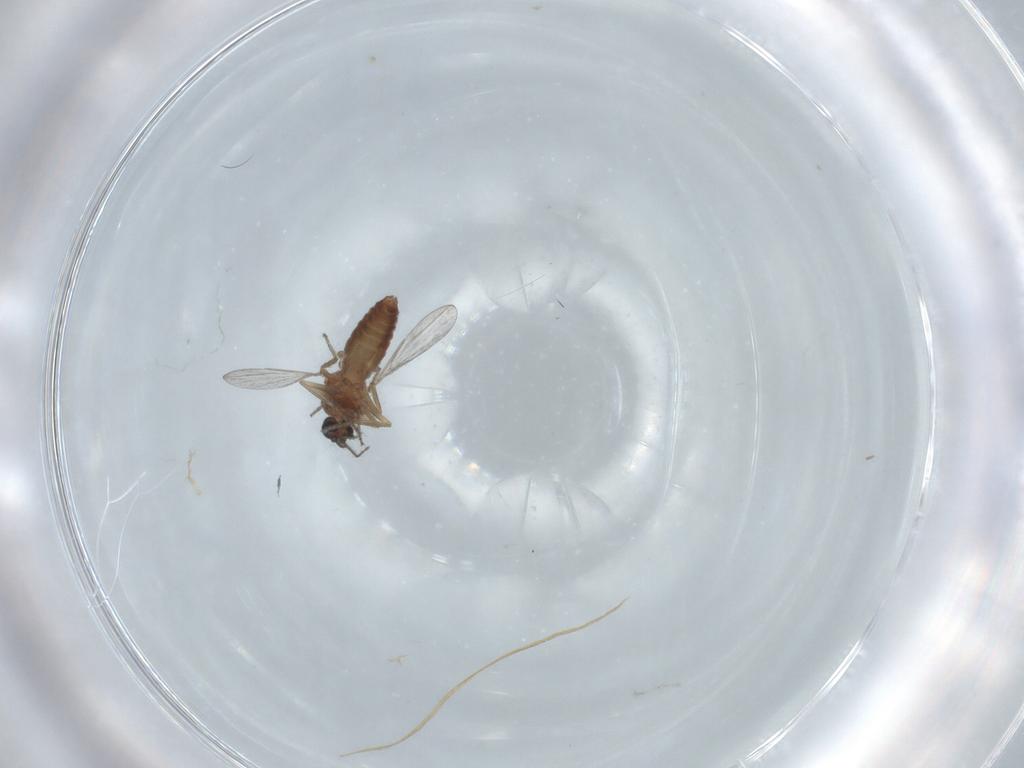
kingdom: Animalia
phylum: Arthropoda
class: Insecta
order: Diptera
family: Ceratopogonidae
